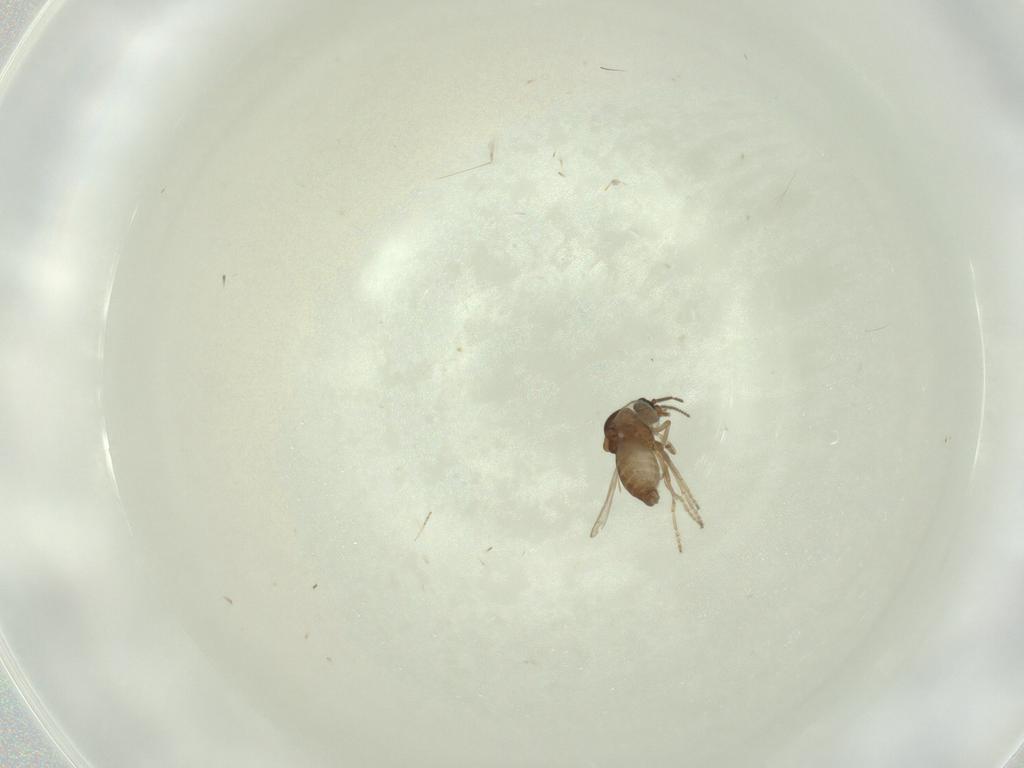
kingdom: Animalia
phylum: Arthropoda
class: Insecta
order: Diptera
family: Ceratopogonidae
